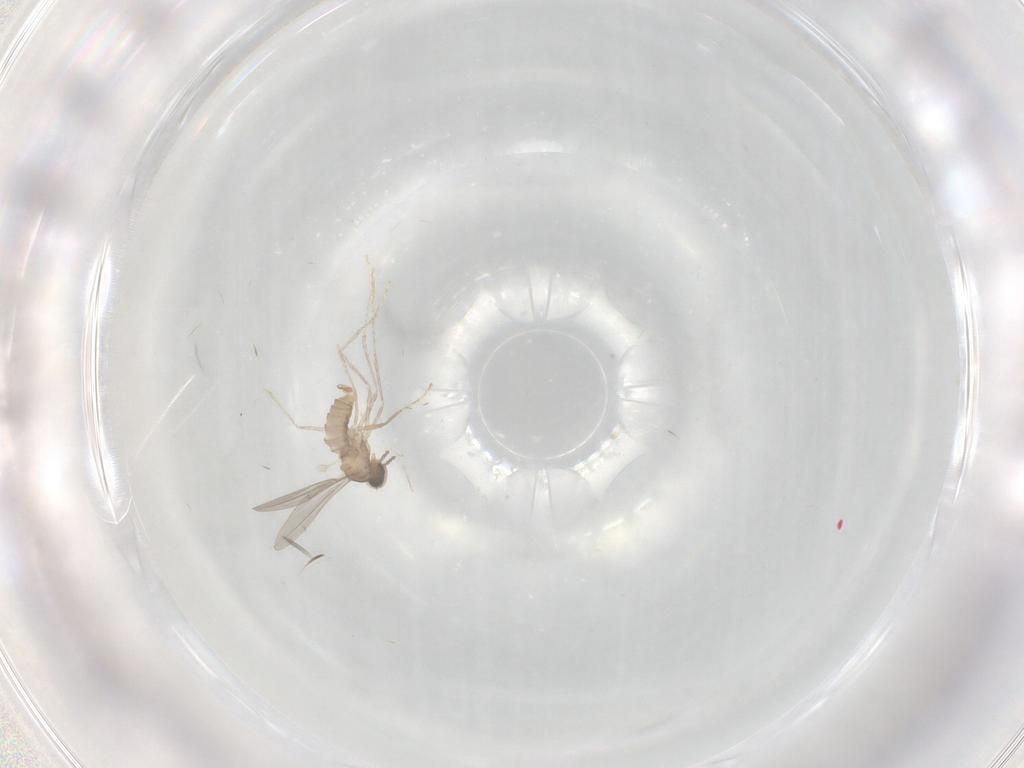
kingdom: Animalia
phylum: Arthropoda
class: Insecta
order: Diptera
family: Cecidomyiidae
